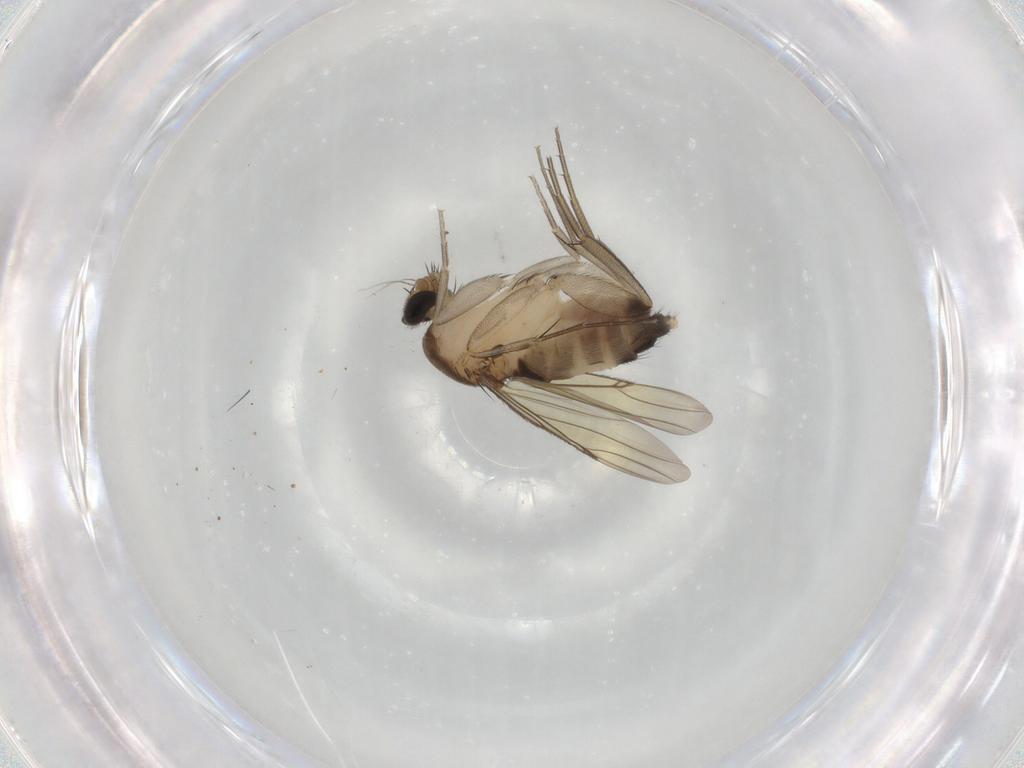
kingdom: Animalia
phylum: Arthropoda
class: Insecta
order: Diptera
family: Phoridae
